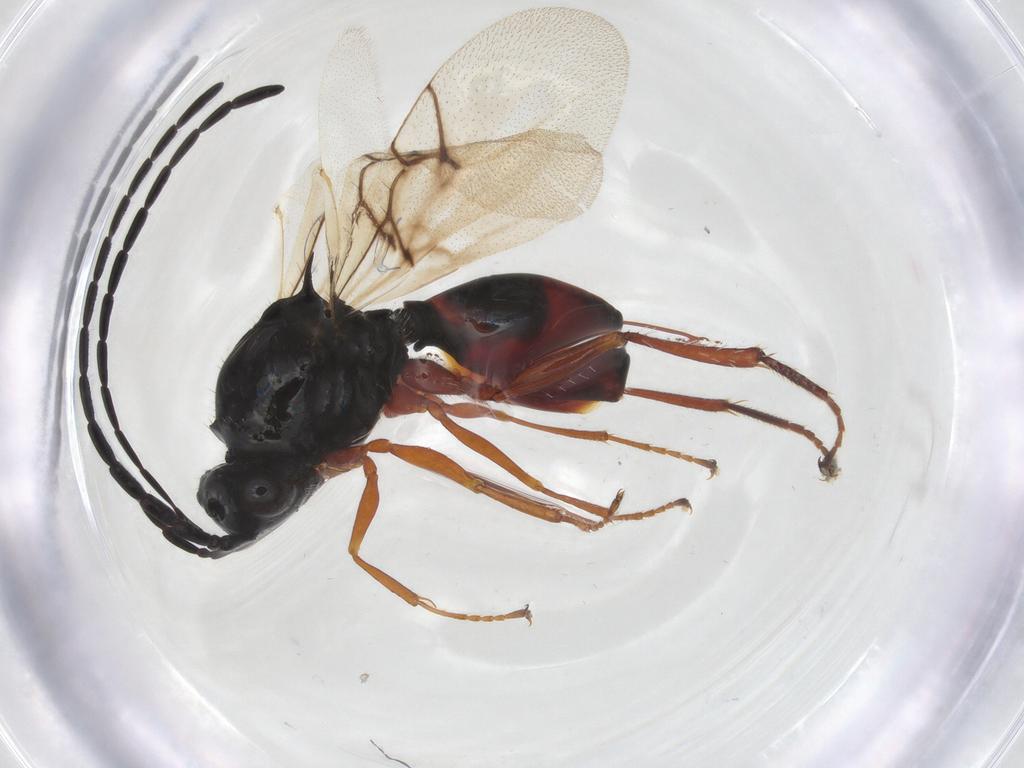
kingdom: Animalia
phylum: Arthropoda
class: Insecta
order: Hymenoptera
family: Figitidae
